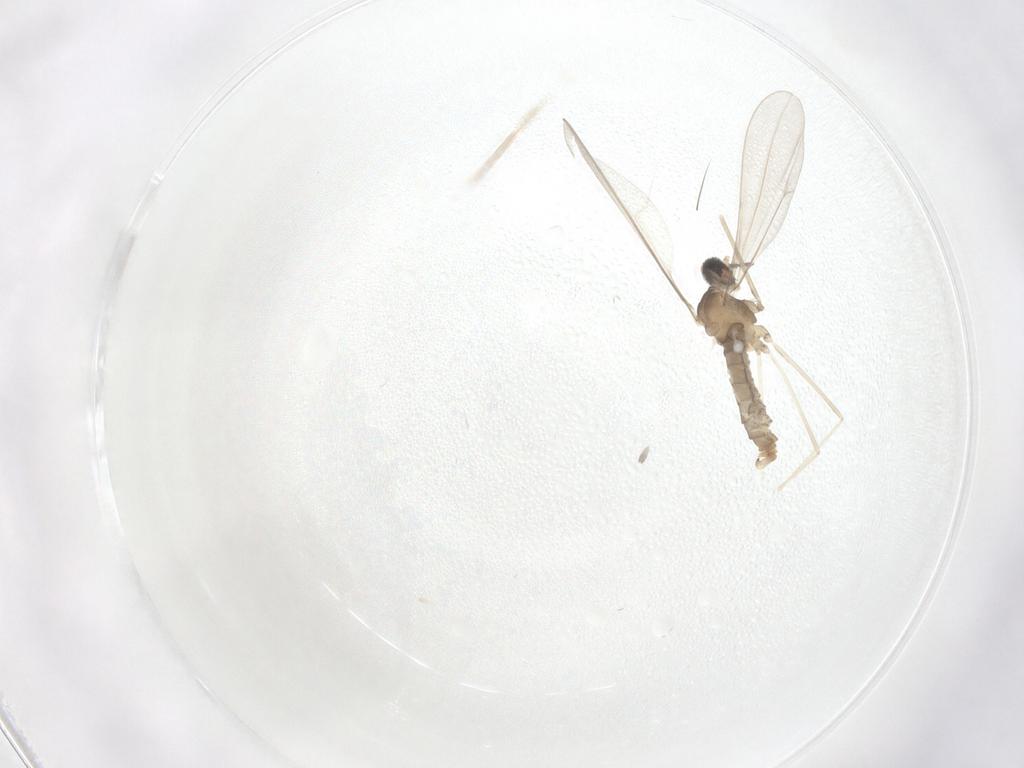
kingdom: Animalia
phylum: Arthropoda
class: Insecta
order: Diptera
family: Cecidomyiidae
